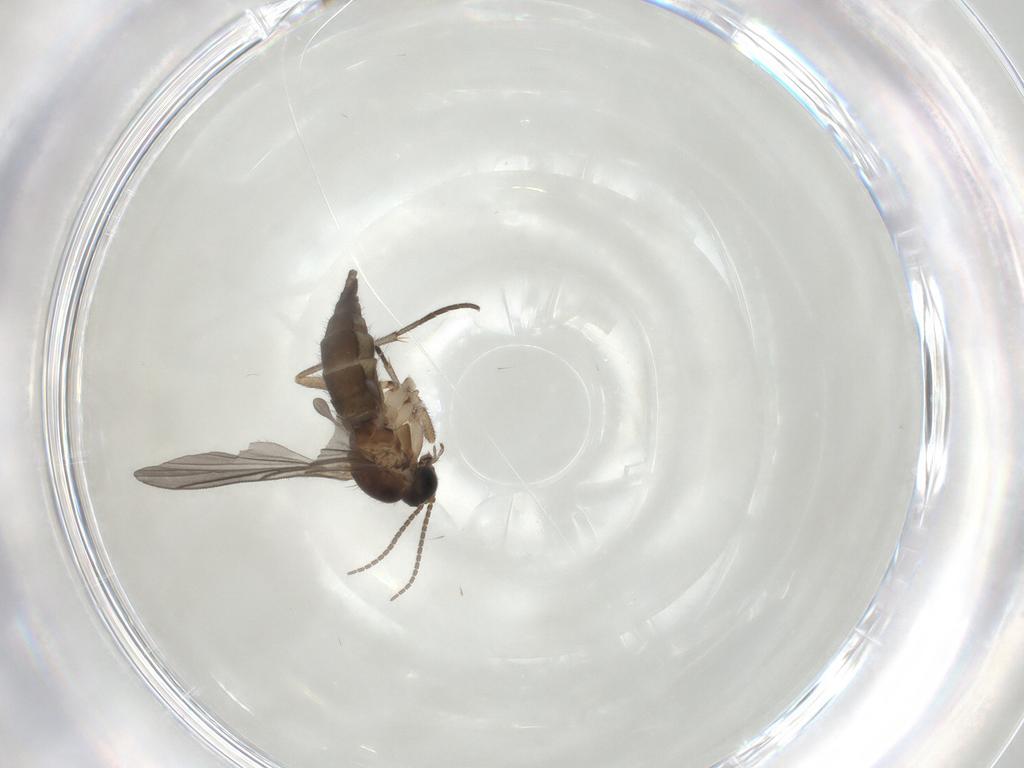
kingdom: Animalia
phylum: Arthropoda
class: Insecta
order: Diptera
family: Sciaridae
